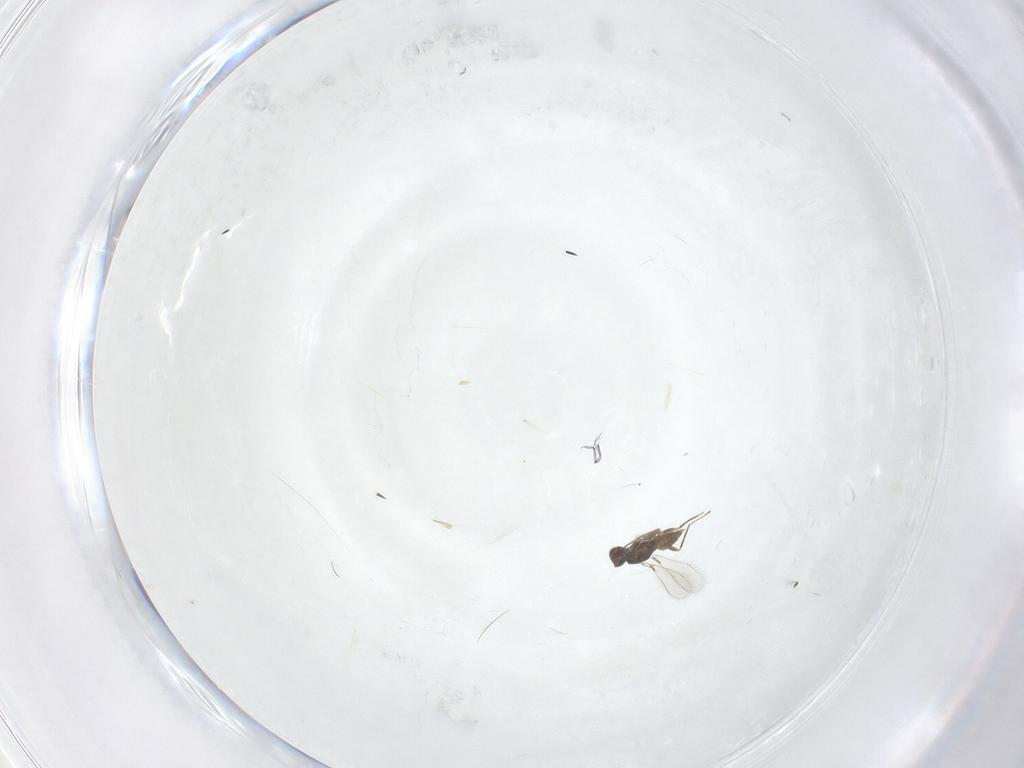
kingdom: Animalia
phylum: Arthropoda
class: Insecta
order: Hymenoptera
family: Mymaridae
